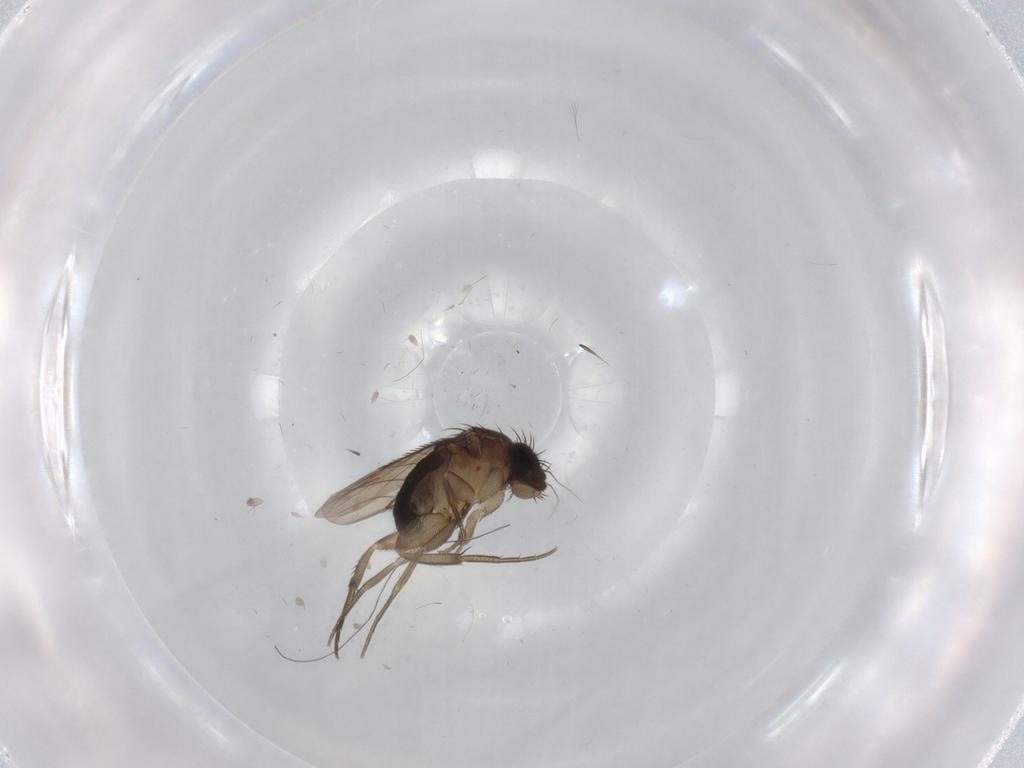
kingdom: Animalia
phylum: Arthropoda
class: Insecta
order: Diptera
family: Phoridae
